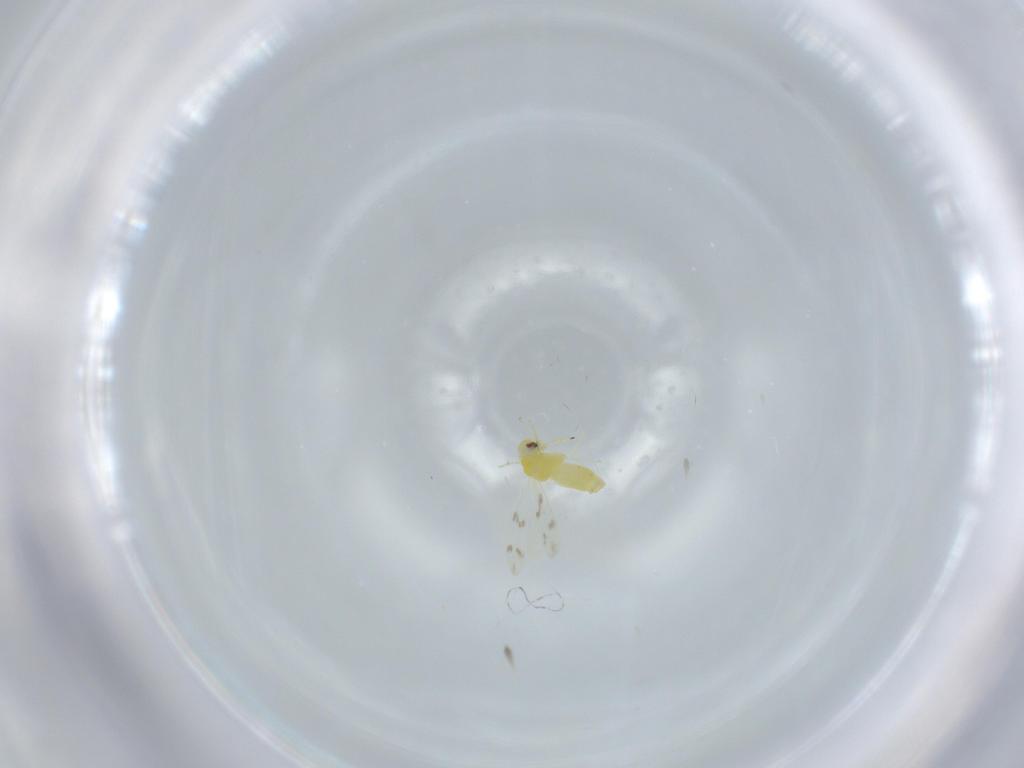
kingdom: Animalia
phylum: Arthropoda
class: Insecta
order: Hemiptera
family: Aleyrodidae
